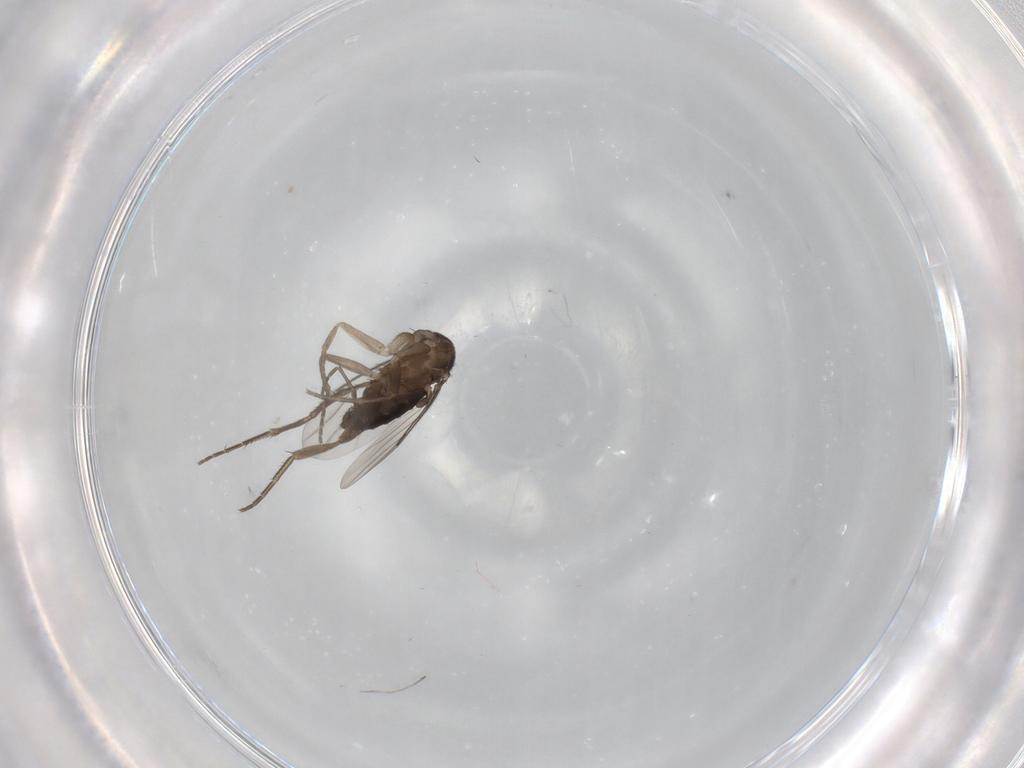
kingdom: Animalia
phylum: Arthropoda
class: Insecta
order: Diptera
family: Phoridae
